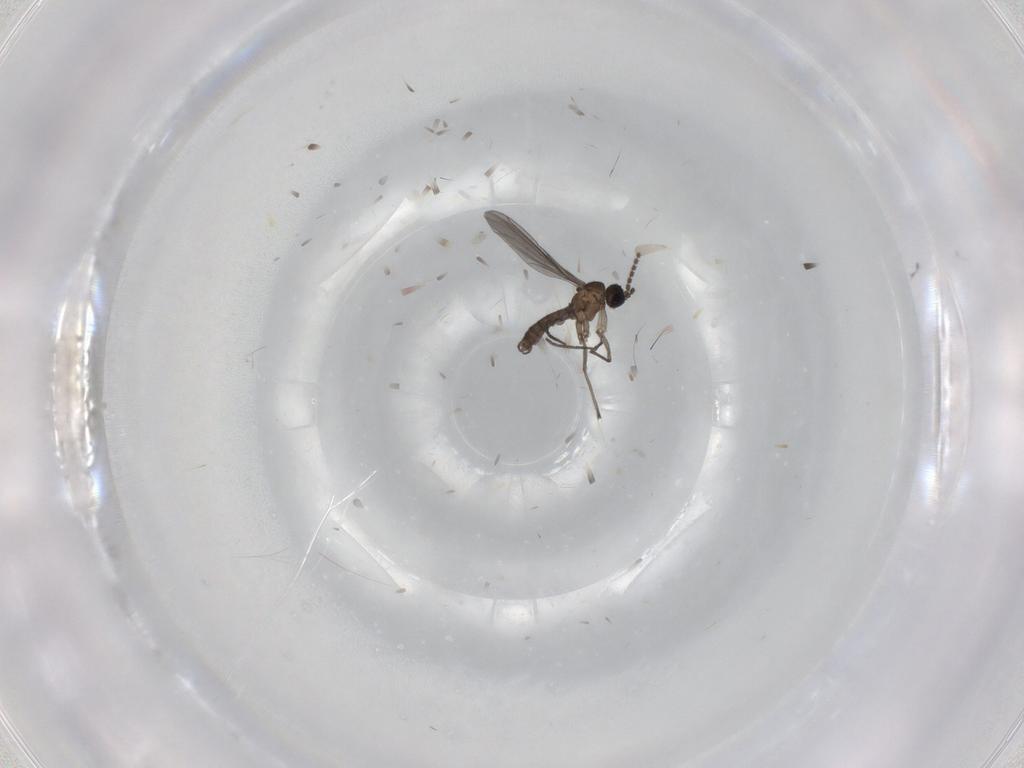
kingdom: Animalia
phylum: Arthropoda
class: Insecta
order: Diptera
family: Sciaridae
